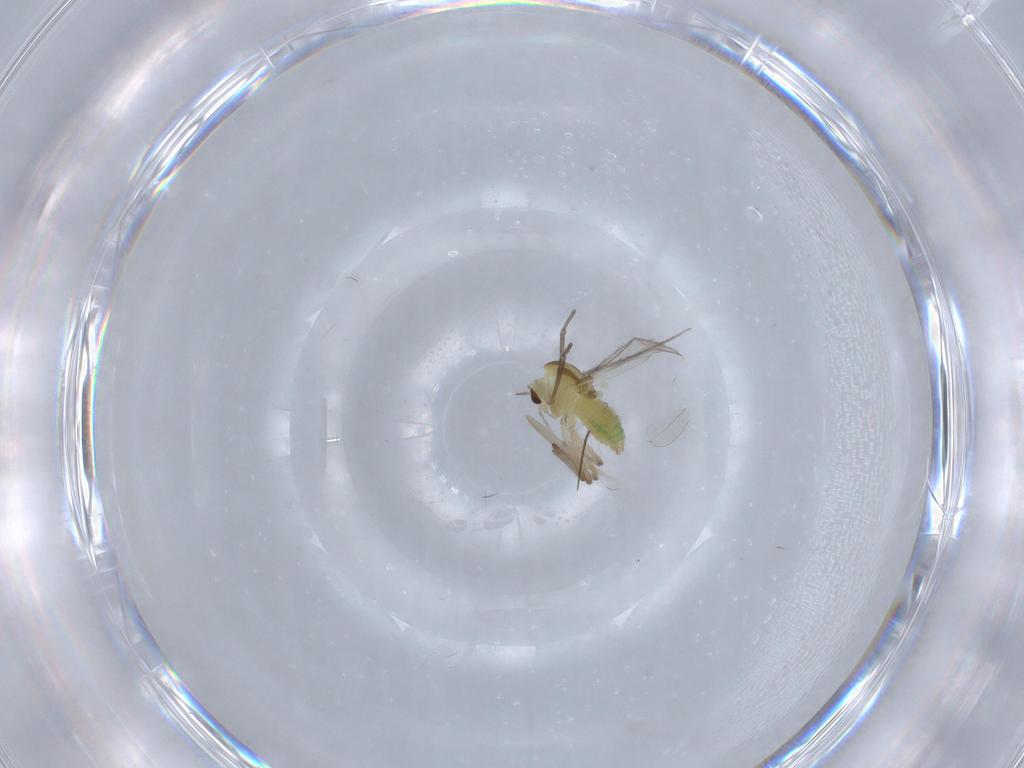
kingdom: Animalia
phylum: Arthropoda
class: Insecta
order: Diptera
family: Chironomidae
